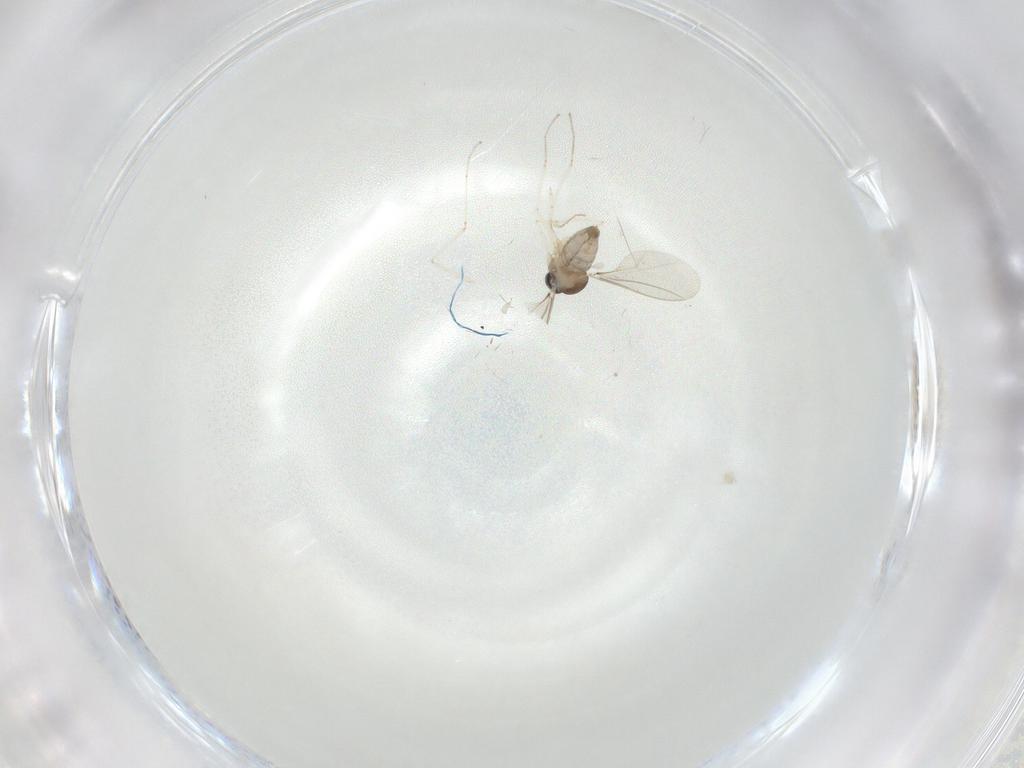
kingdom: Animalia
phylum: Arthropoda
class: Insecta
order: Diptera
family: Cecidomyiidae
